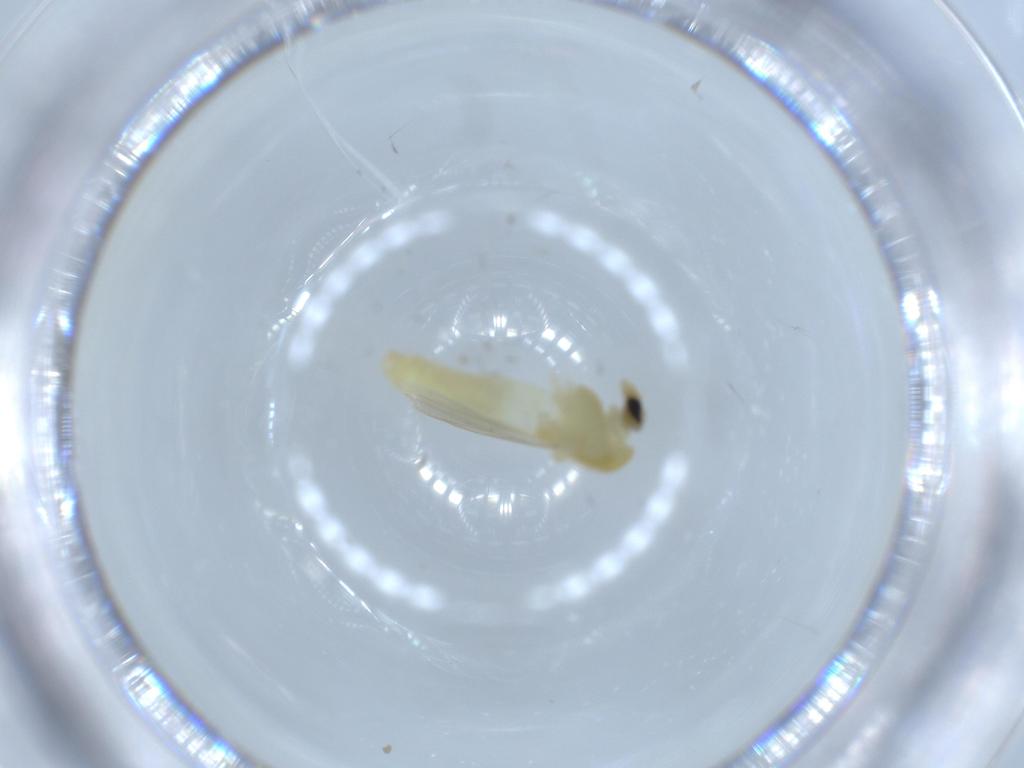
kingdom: Animalia
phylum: Arthropoda
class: Insecta
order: Diptera
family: Chironomidae
